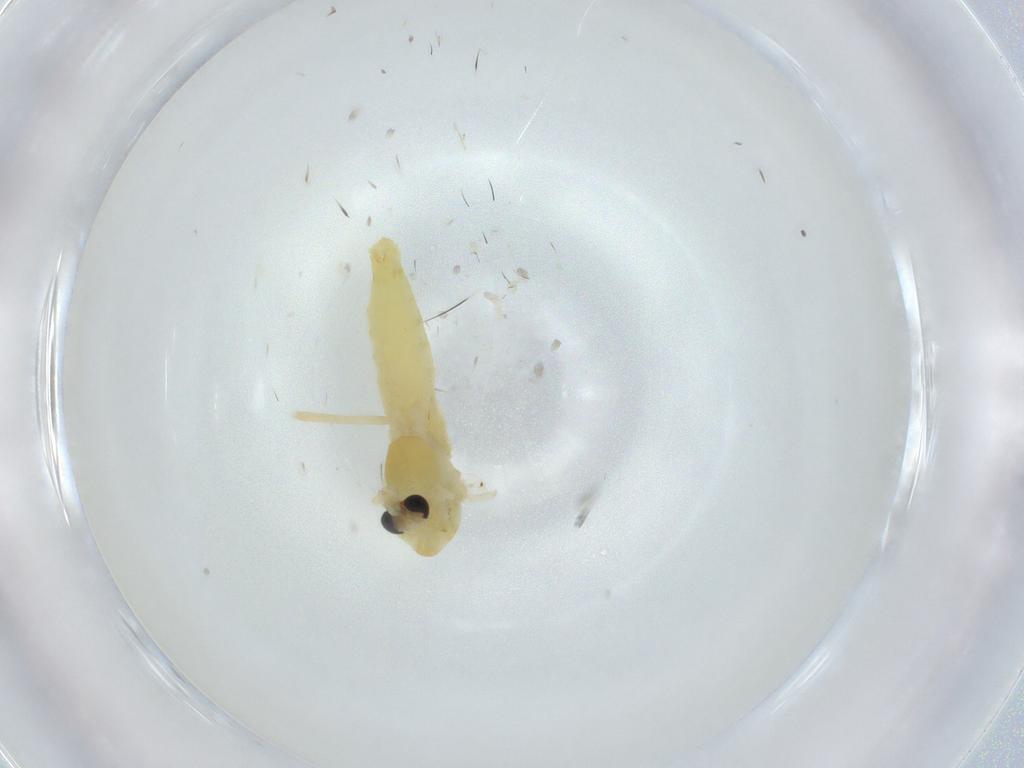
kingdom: Animalia
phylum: Arthropoda
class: Insecta
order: Diptera
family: Chironomidae
